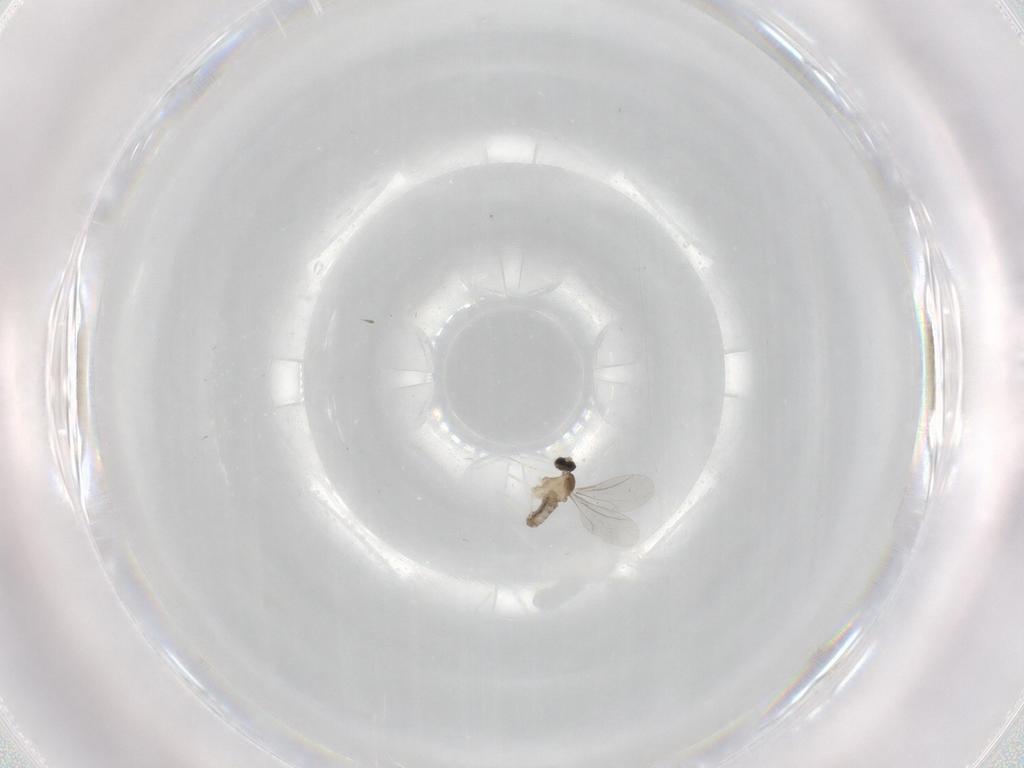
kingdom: Animalia
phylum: Arthropoda
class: Insecta
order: Diptera
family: Cecidomyiidae
